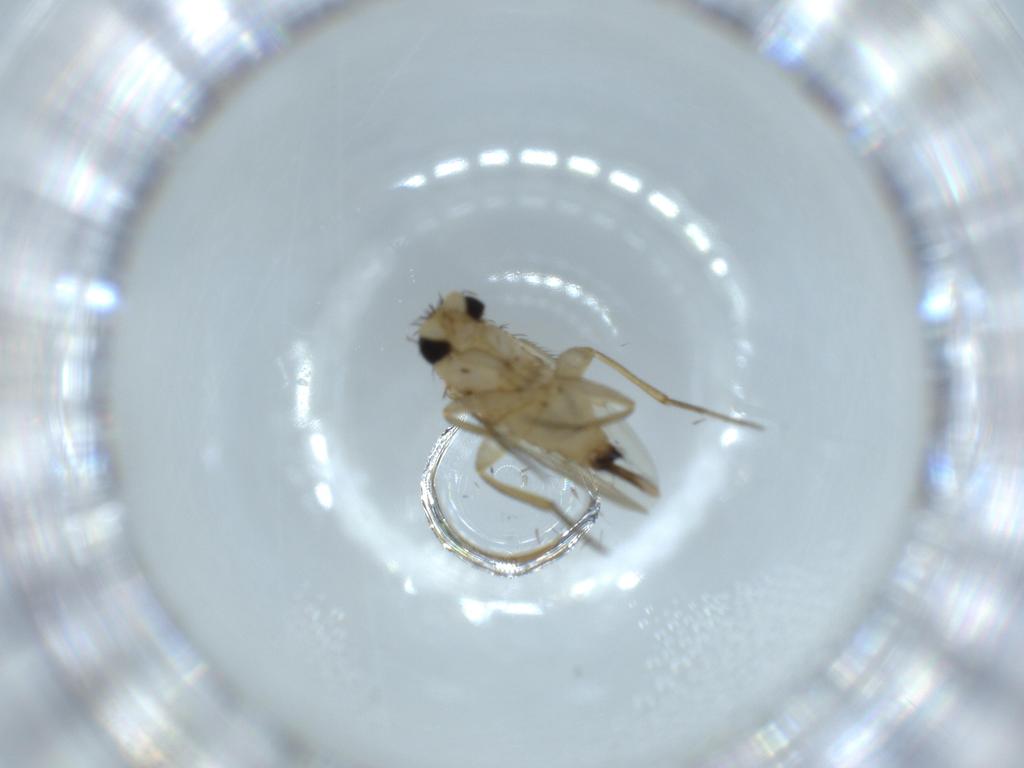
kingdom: Animalia
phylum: Arthropoda
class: Insecta
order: Diptera
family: Phoridae
